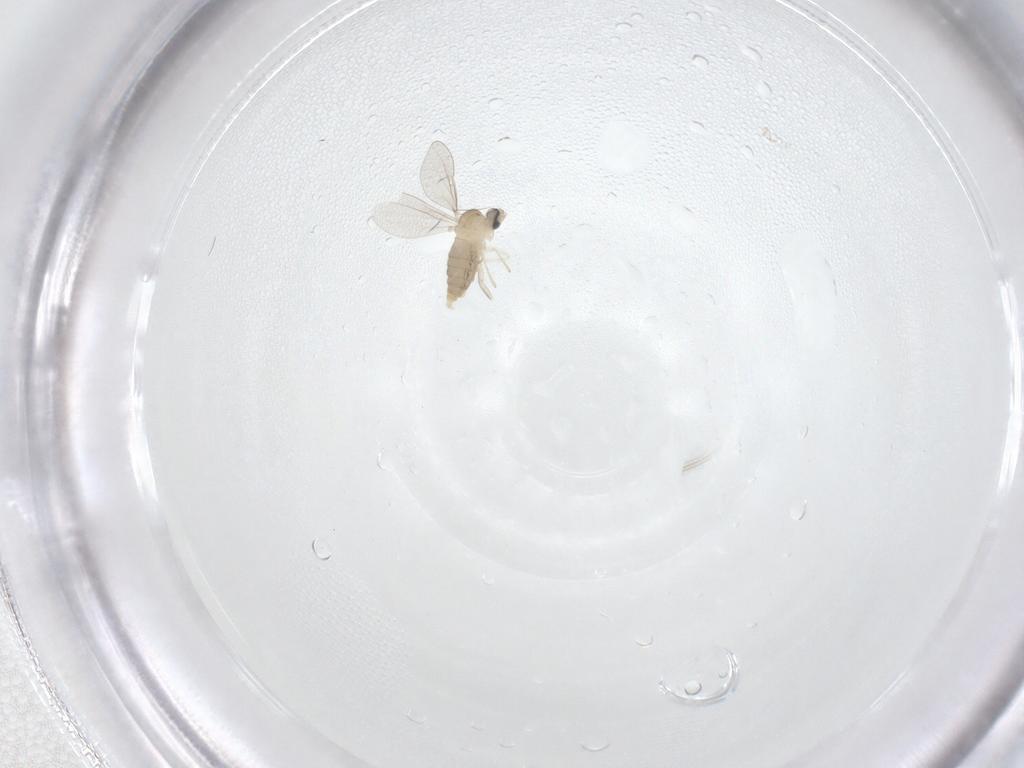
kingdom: Animalia
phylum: Arthropoda
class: Insecta
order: Diptera
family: Cecidomyiidae
